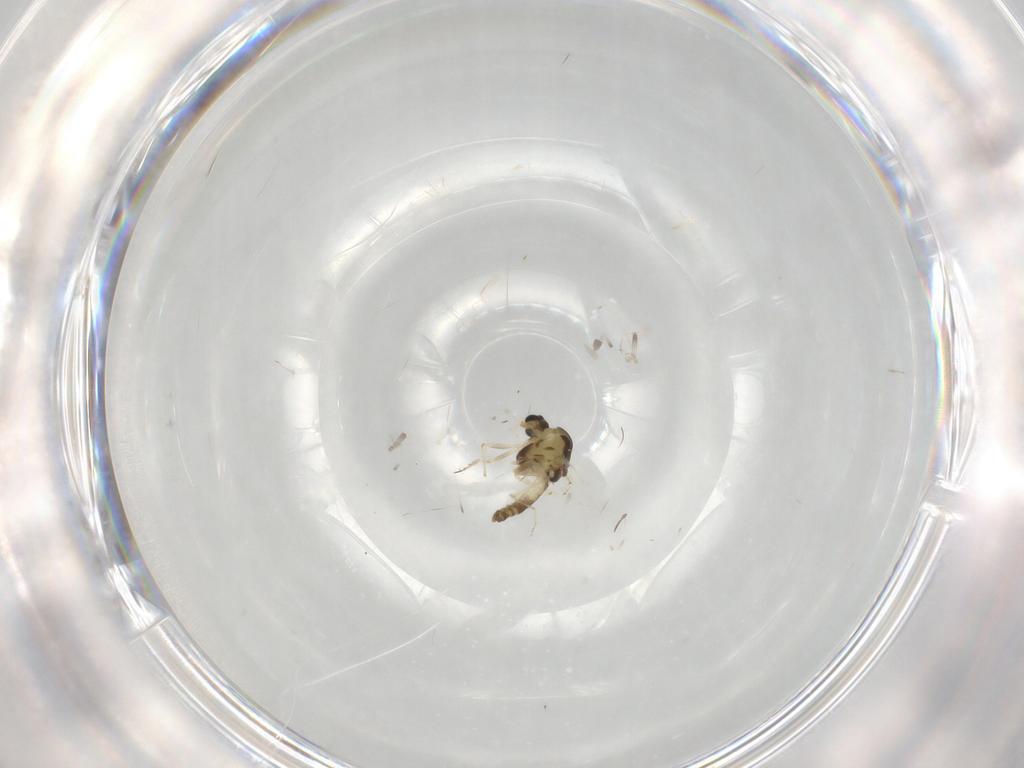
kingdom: Animalia
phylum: Arthropoda
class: Insecta
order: Diptera
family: Chironomidae
